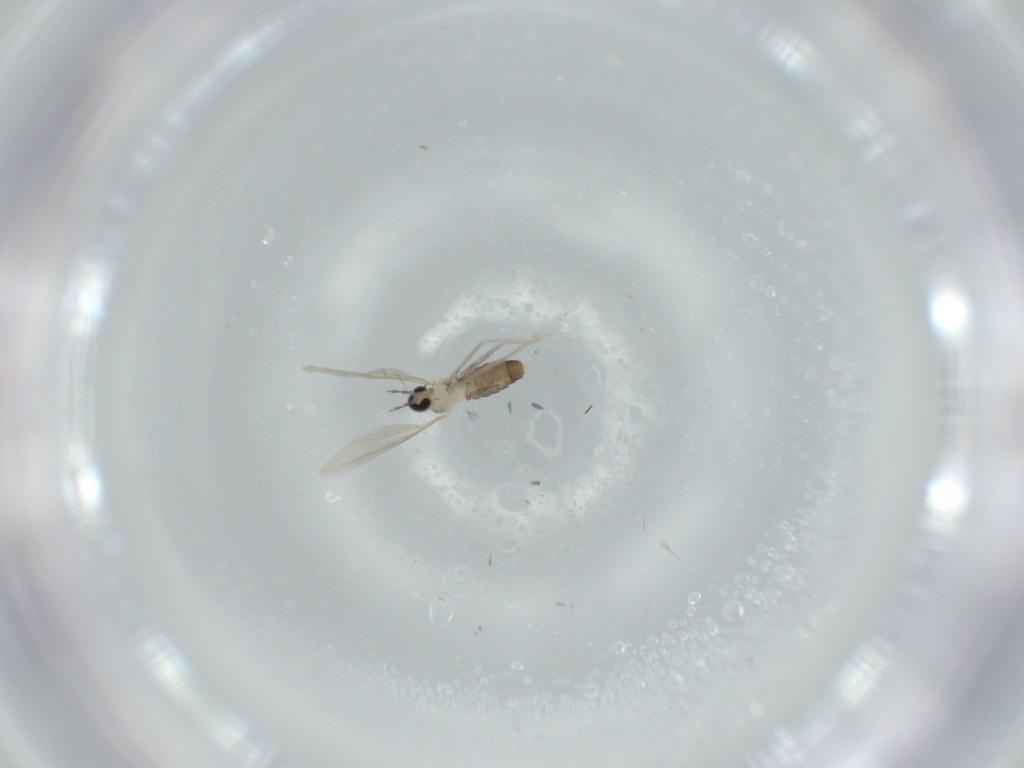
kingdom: Animalia
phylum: Arthropoda
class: Insecta
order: Diptera
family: Cecidomyiidae
